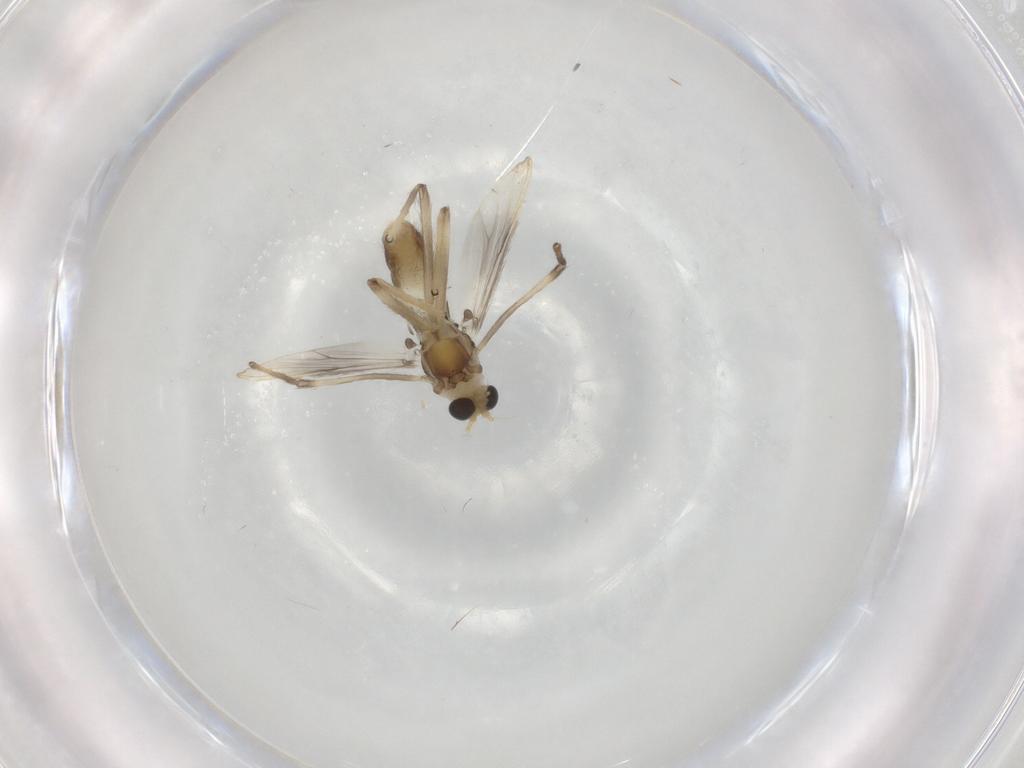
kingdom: Animalia
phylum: Arthropoda
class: Insecta
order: Diptera
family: Chironomidae
